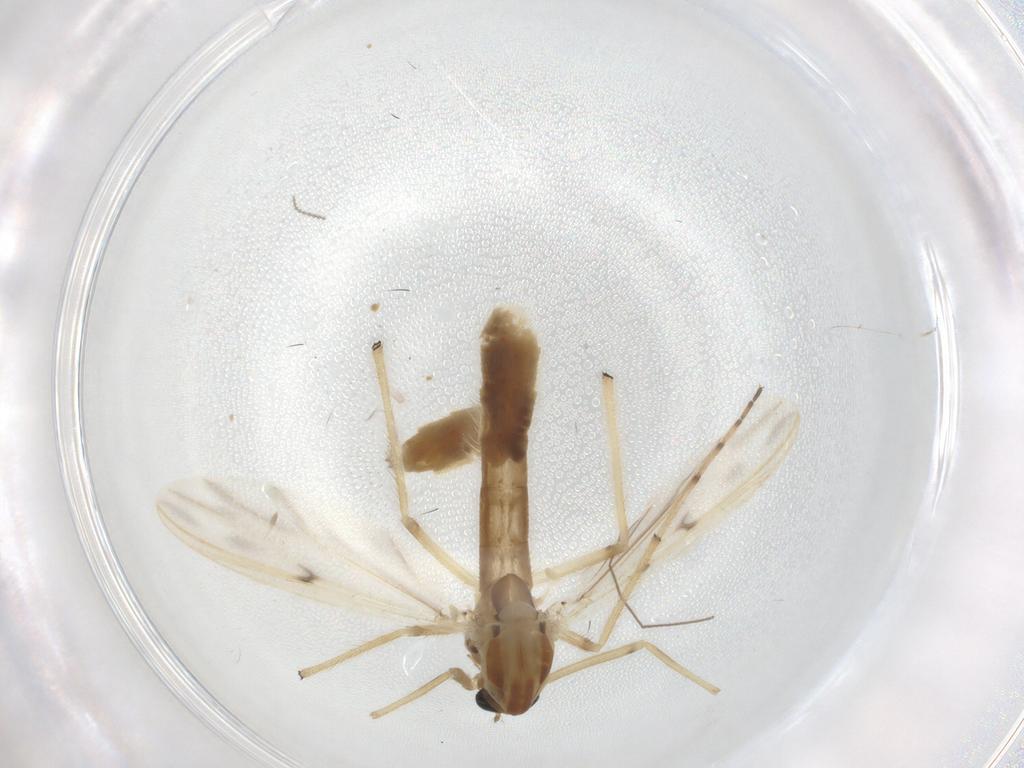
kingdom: Animalia
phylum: Arthropoda
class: Insecta
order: Diptera
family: Chironomidae
